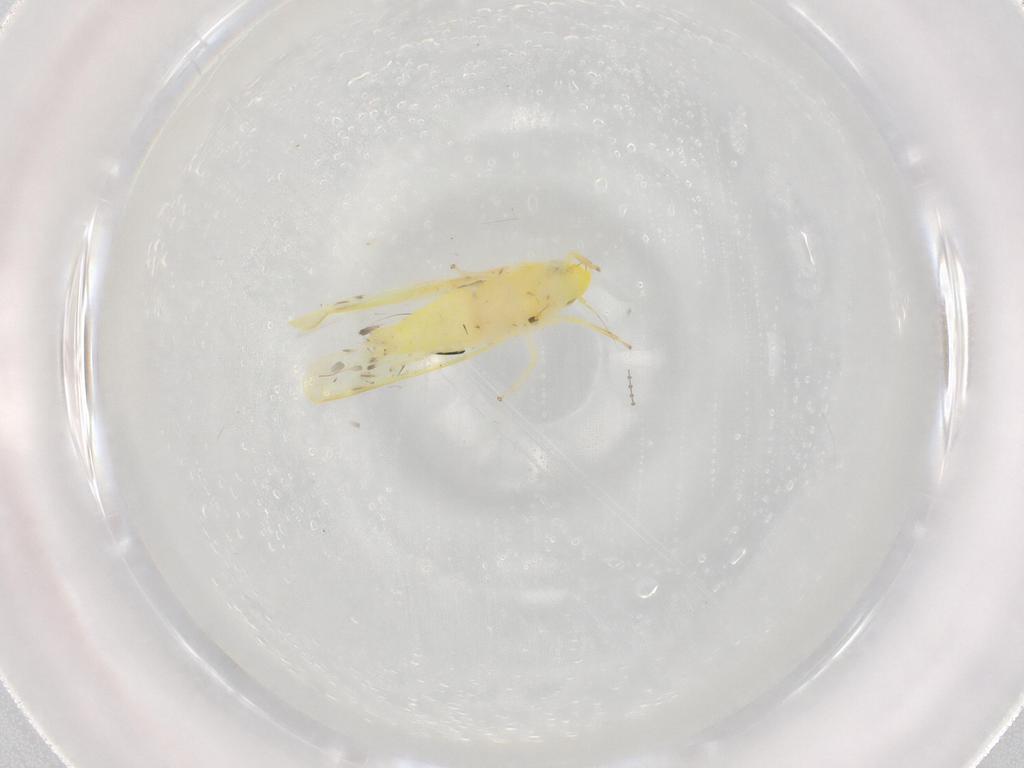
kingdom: Animalia
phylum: Arthropoda
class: Insecta
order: Hemiptera
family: Cicadellidae
